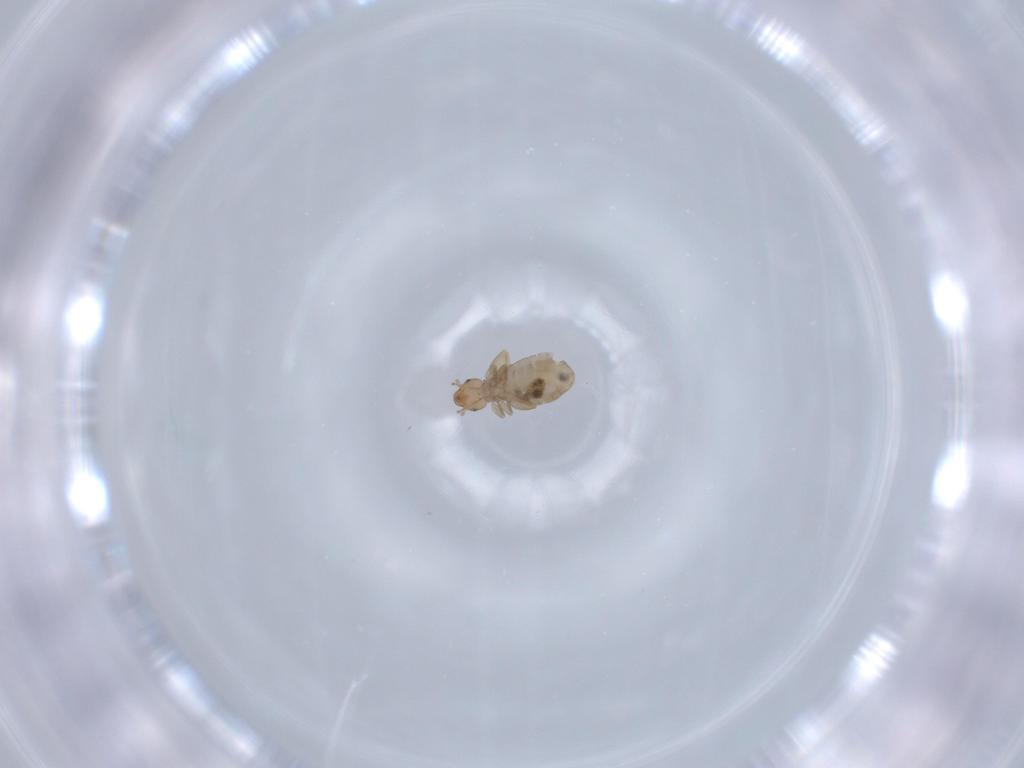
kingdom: Animalia
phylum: Arthropoda
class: Insecta
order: Psocodea
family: Liposcelididae
